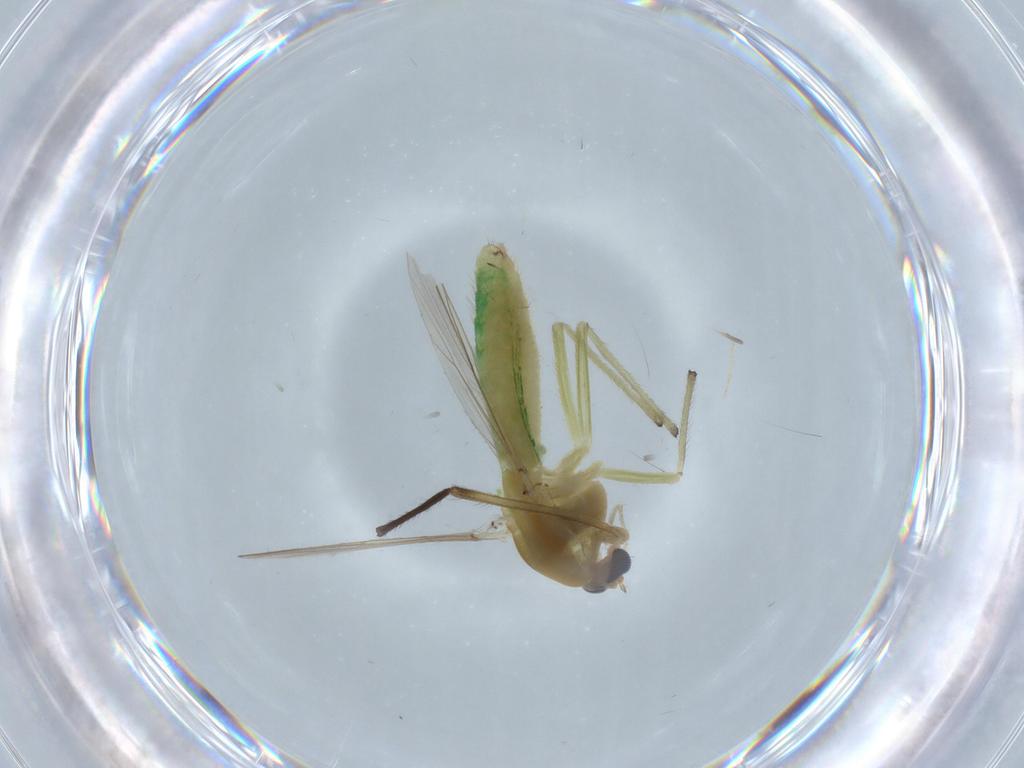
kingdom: Animalia
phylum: Arthropoda
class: Insecta
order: Diptera
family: Chironomidae
